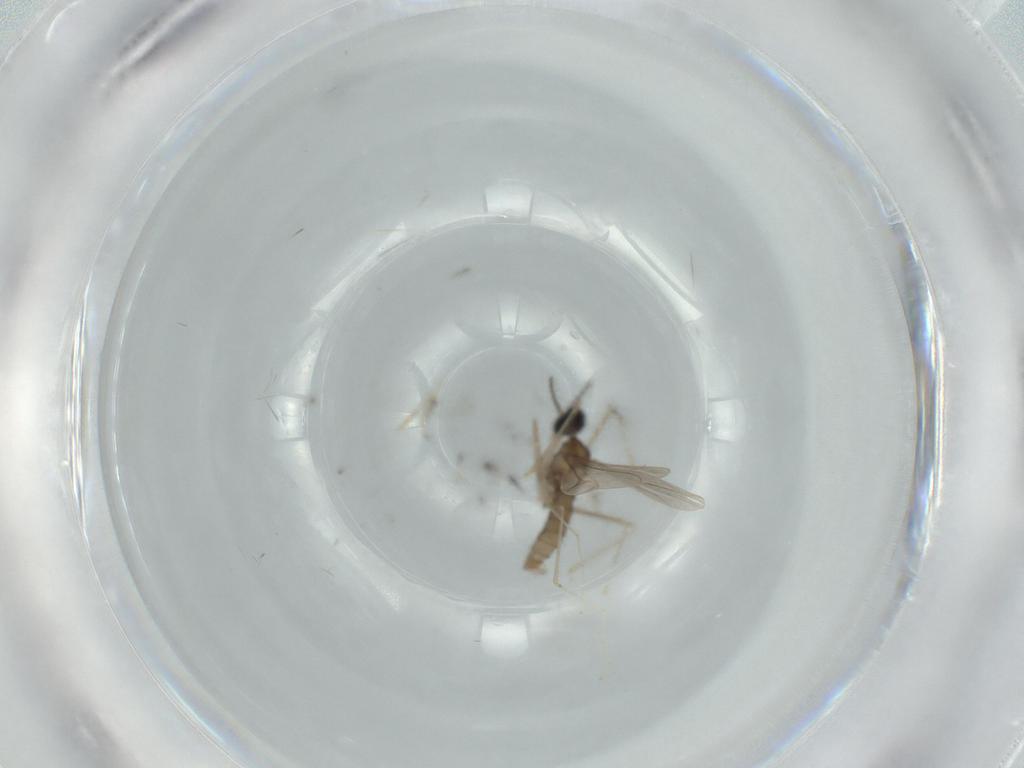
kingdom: Animalia
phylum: Arthropoda
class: Insecta
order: Diptera
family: Cecidomyiidae
